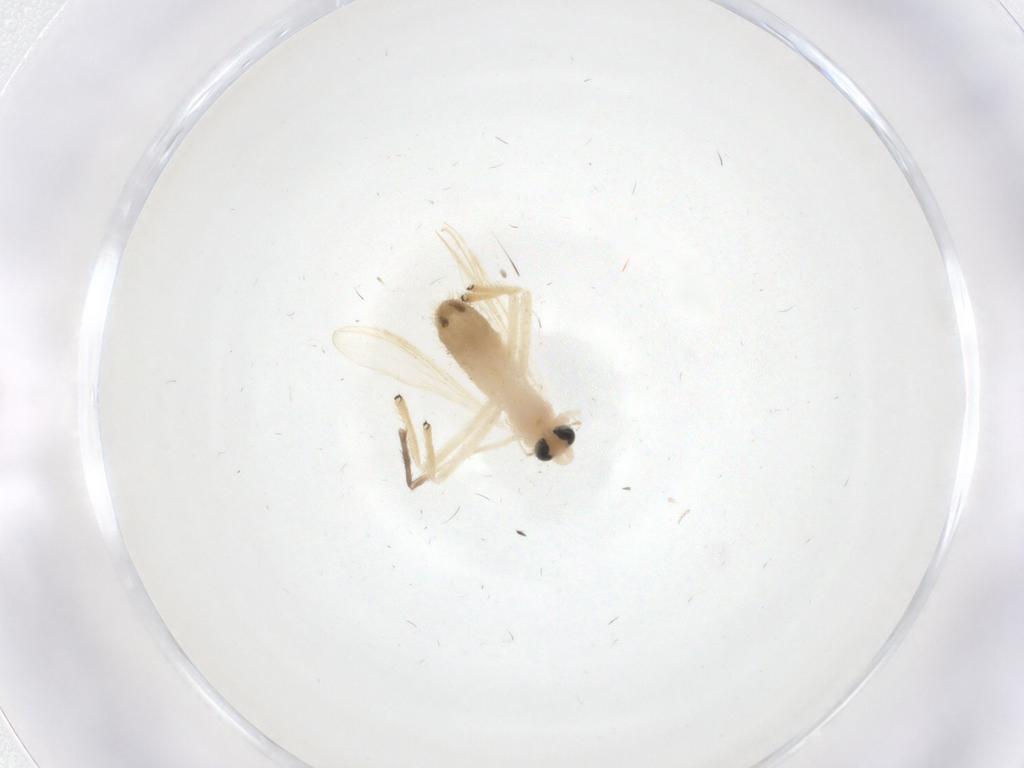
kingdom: Animalia
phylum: Arthropoda
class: Insecta
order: Diptera
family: Chironomidae
